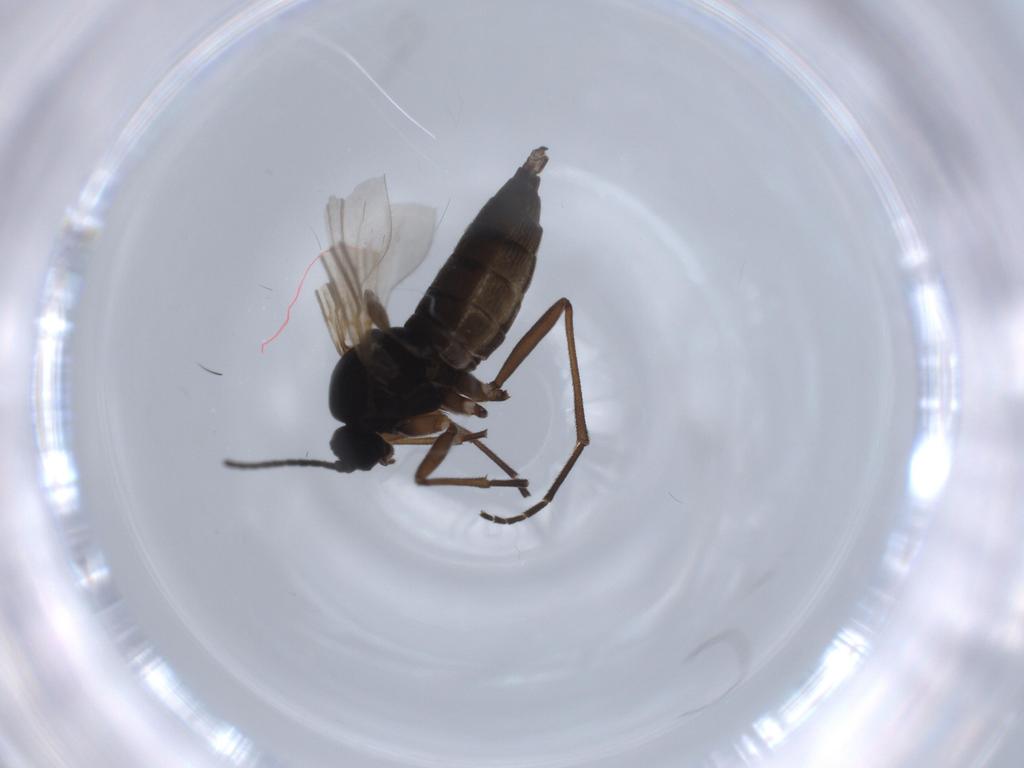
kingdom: Animalia
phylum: Arthropoda
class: Insecta
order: Diptera
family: Sciaridae
